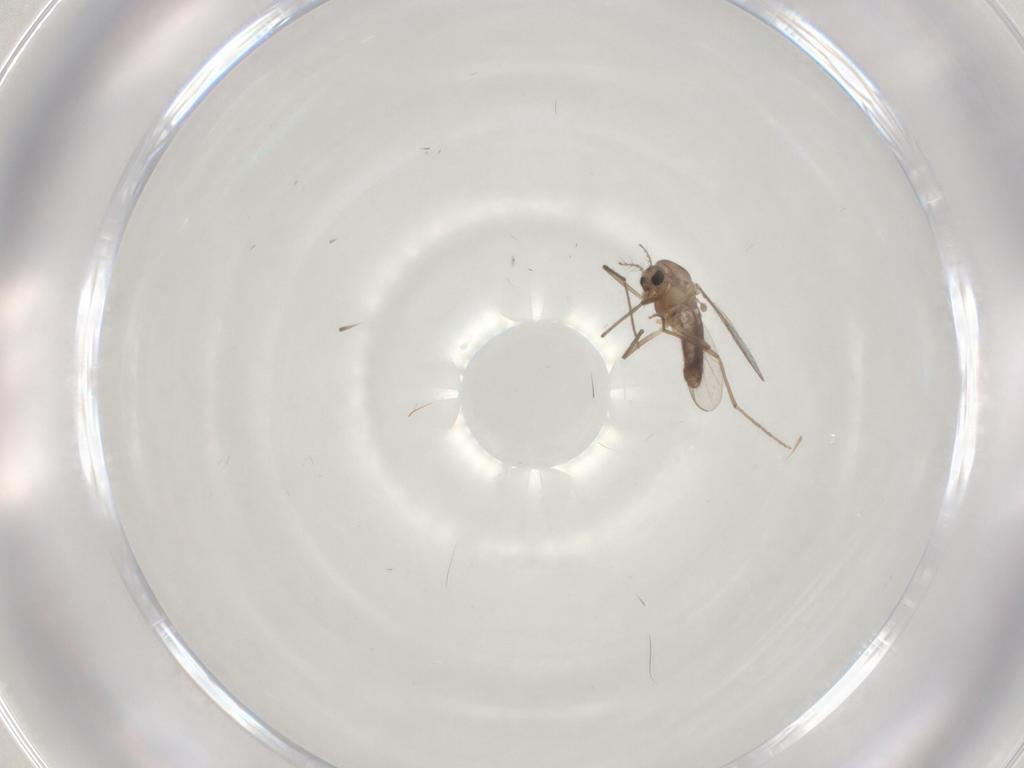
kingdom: Animalia
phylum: Arthropoda
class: Insecta
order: Diptera
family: Chironomidae
